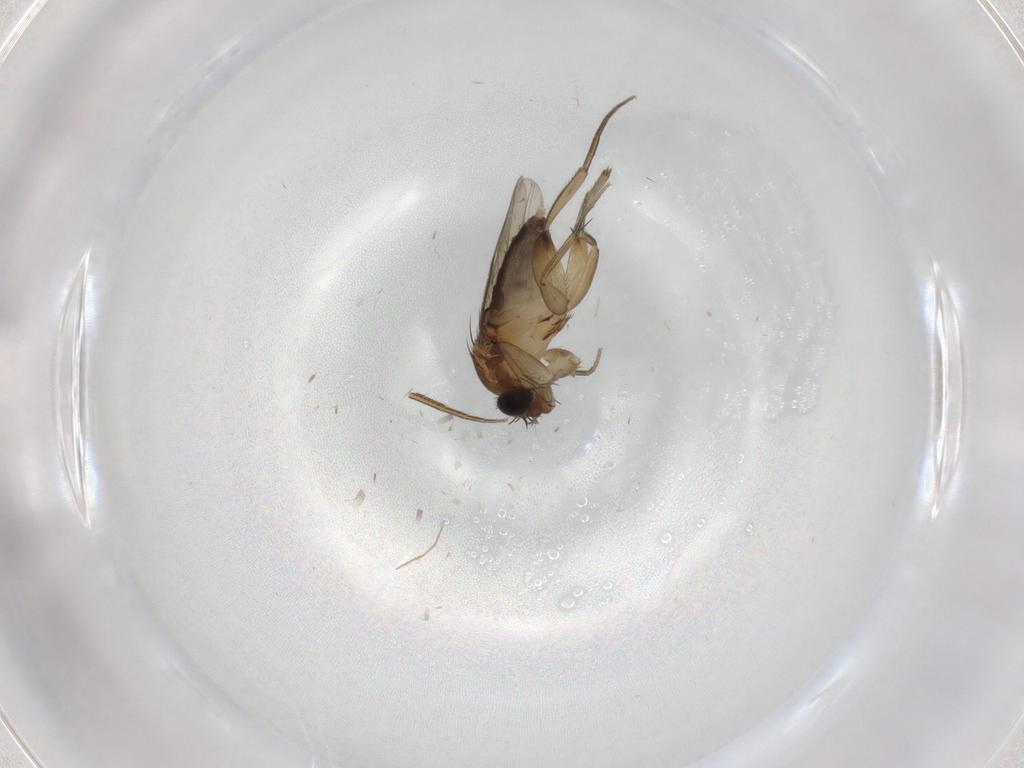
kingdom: Animalia
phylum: Arthropoda
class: Insecta
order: Diptera
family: Phoridae
